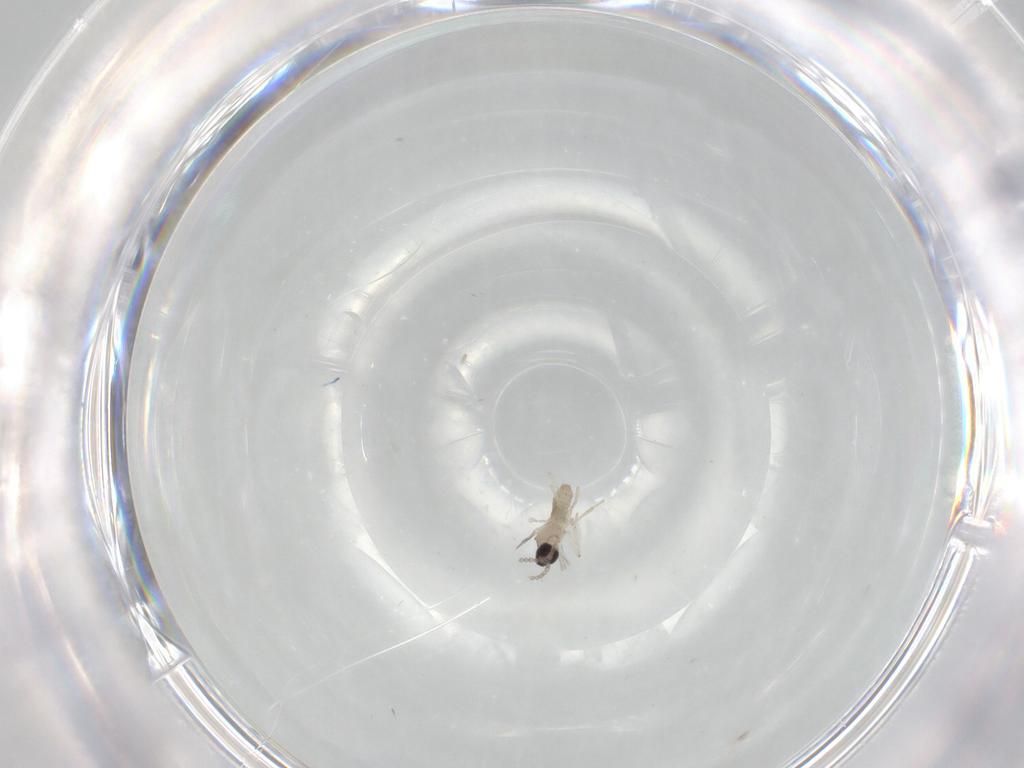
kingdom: Animalia
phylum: Arthropoda
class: Insecta
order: Diptera
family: Cecidomyiidae
